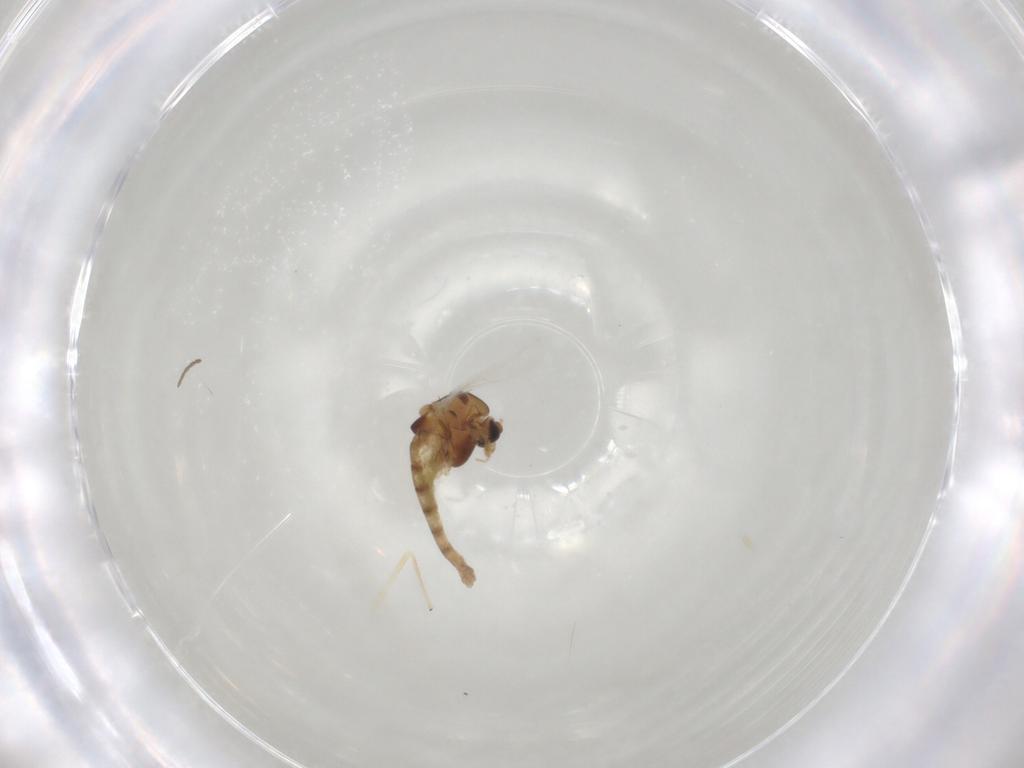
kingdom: Animalia
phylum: Arthropoda
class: Insecta
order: Diptera
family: Chironomidae
